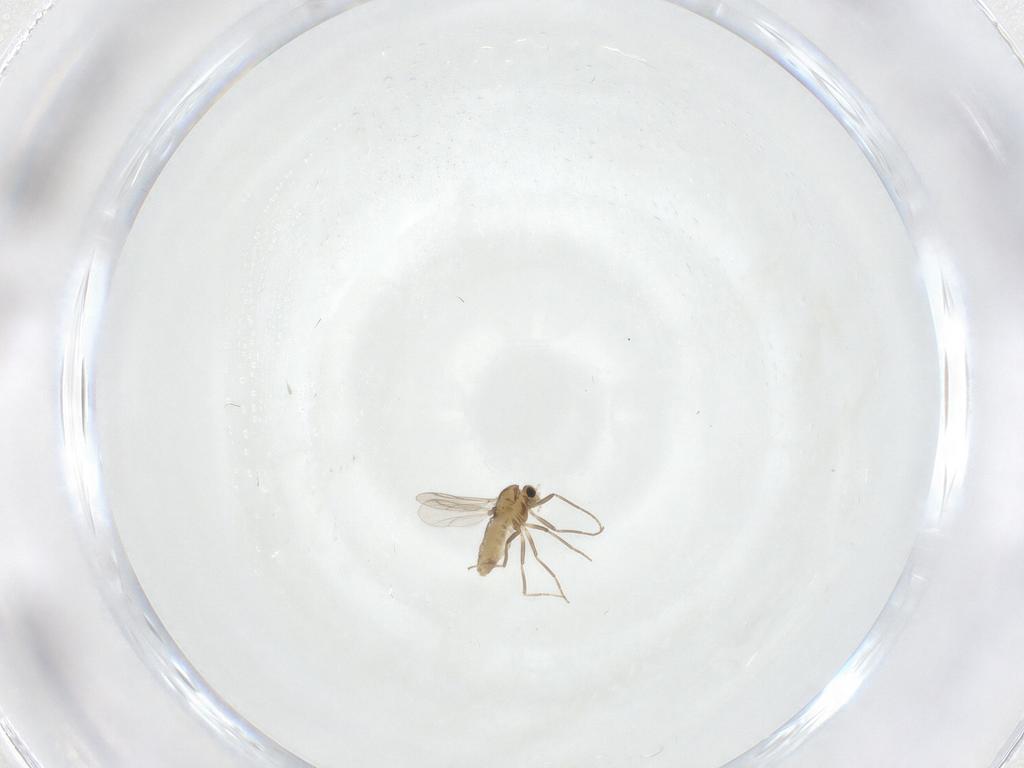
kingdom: Animalia
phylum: Arthropoda
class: Insecta
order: Diptera
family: Chironomidae
